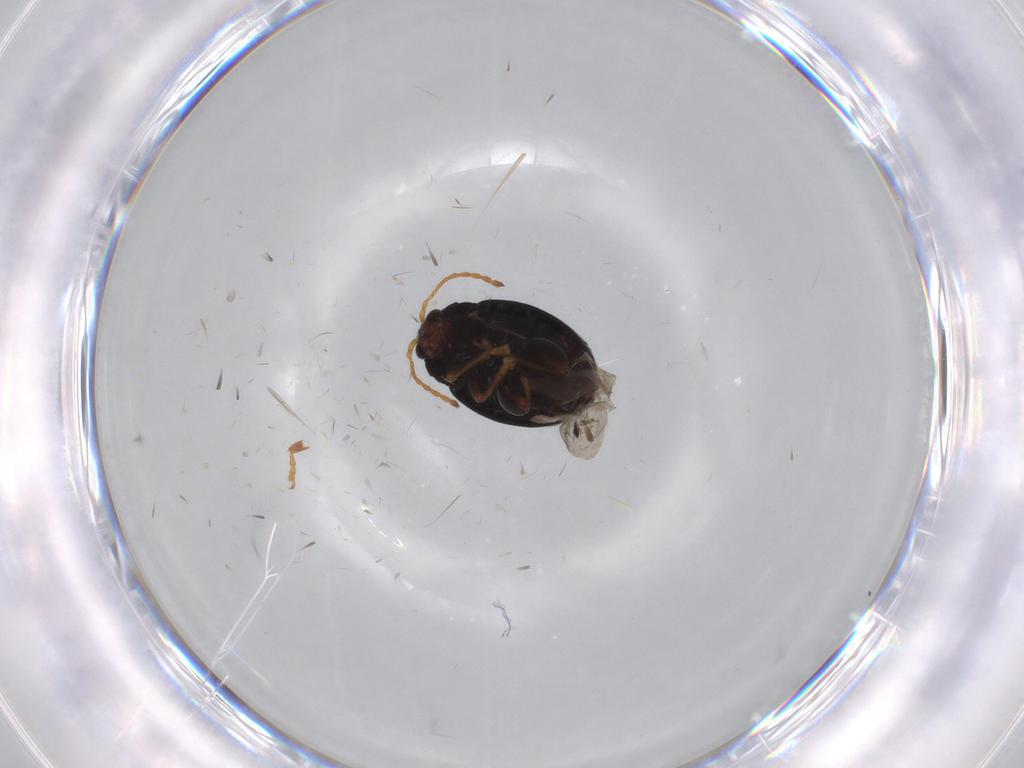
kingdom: Animalia
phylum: Arthropoda
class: Insecta
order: Coleoptera
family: Chrysomelidae
